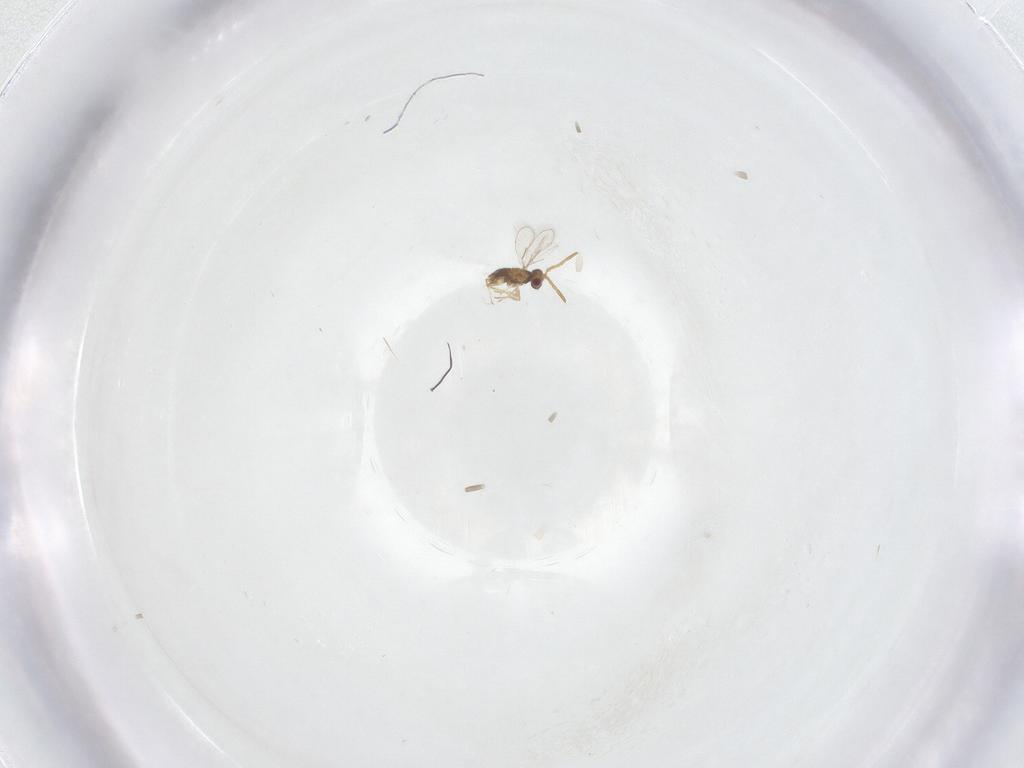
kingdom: Animalia
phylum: Arthropoda
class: Insecta
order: Hymenoptera
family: Aphelinidae
